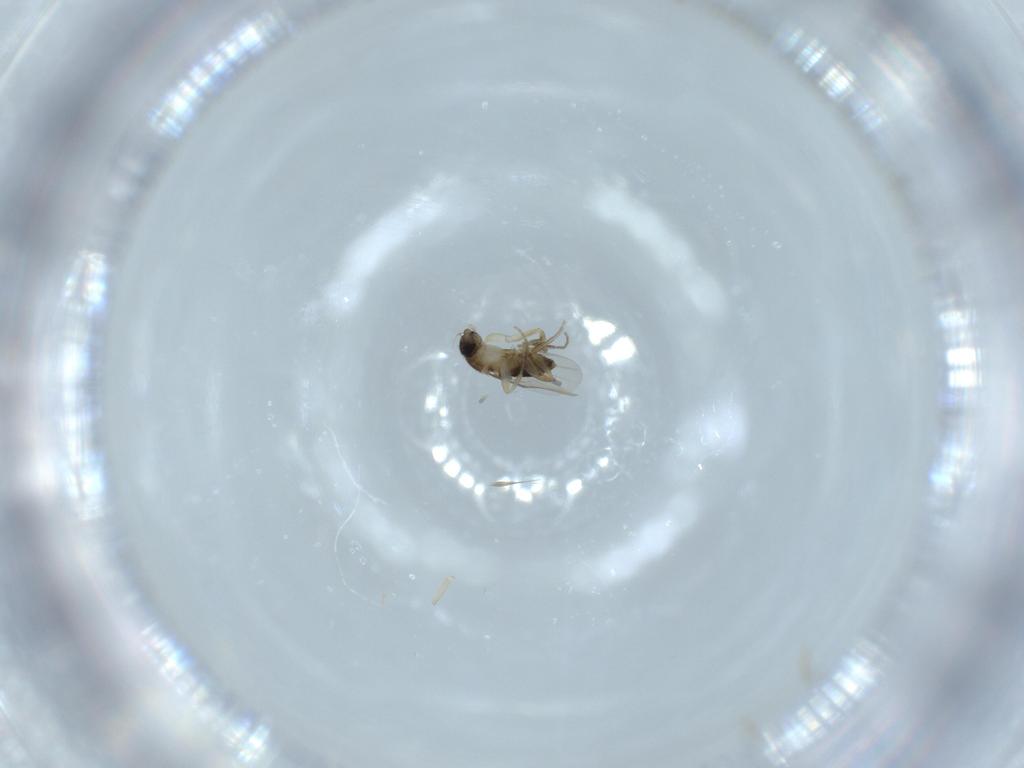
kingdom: Animalia
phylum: Arthropoda
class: Insecta
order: Diptera
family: Phoridae
